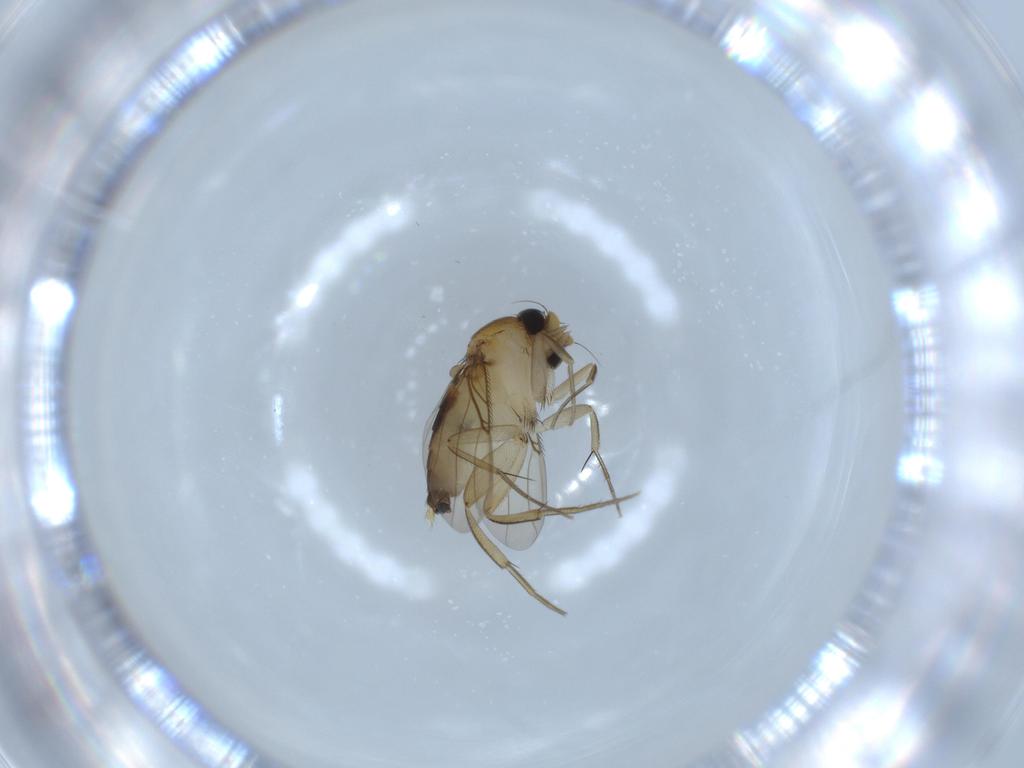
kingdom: Animalia
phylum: Arthropoda
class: Insecta
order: Diptera
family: Phoridae
